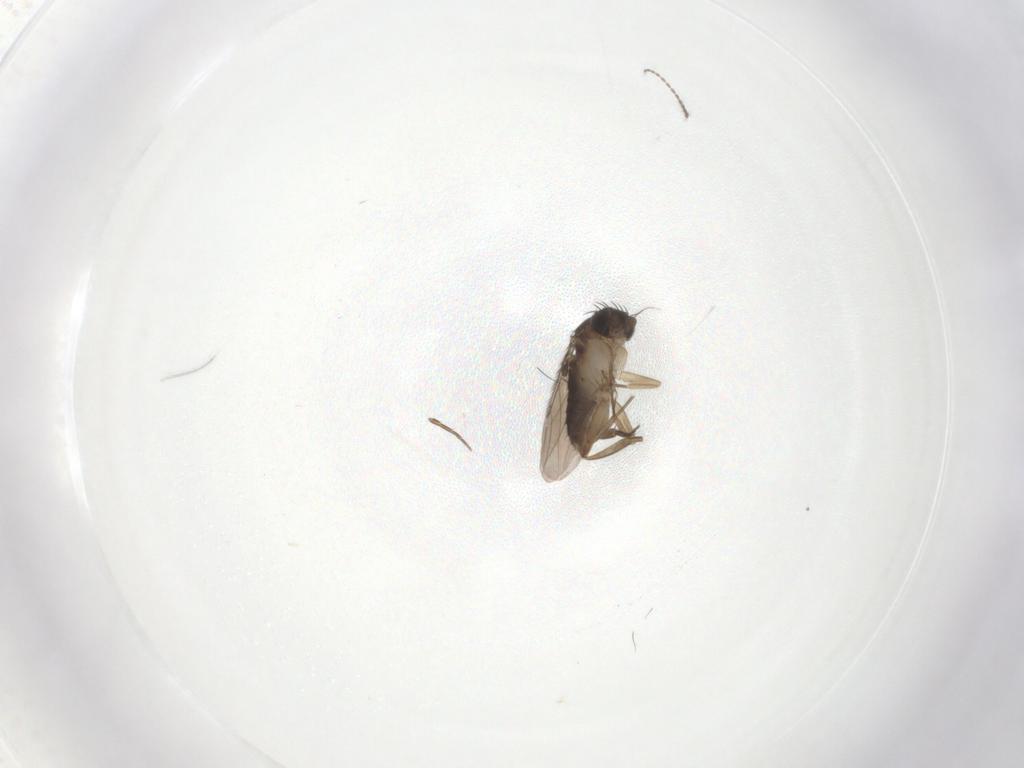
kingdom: Animalia
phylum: Arthropoda
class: Insecta
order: Diptera
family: Phoridae
